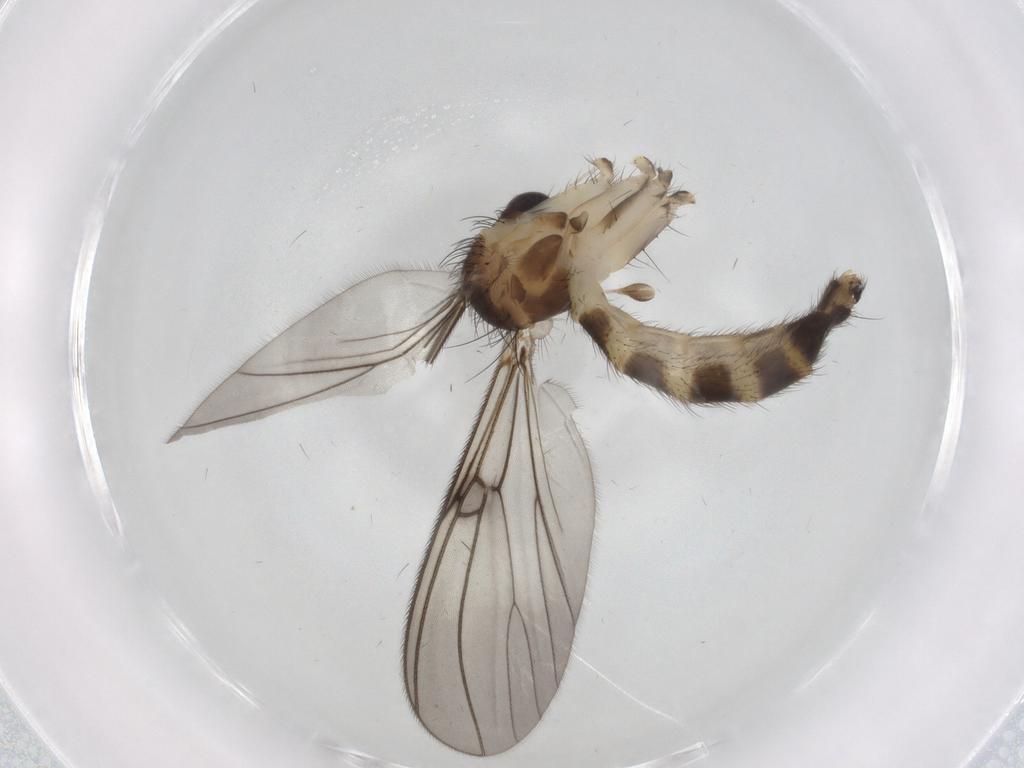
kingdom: Animalia
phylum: Arthropoda
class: Insecta
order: Diptera
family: Mycetophilidae
